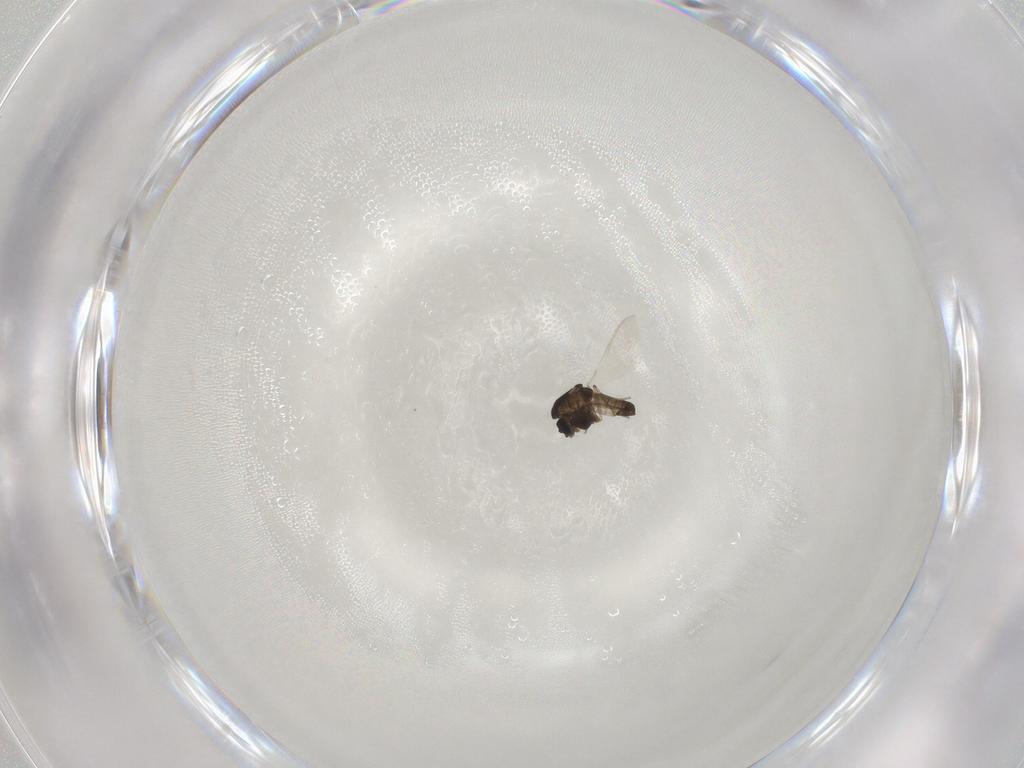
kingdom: Animalia
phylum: Arthropoda
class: Insecta
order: Diptera
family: Chironomidae
